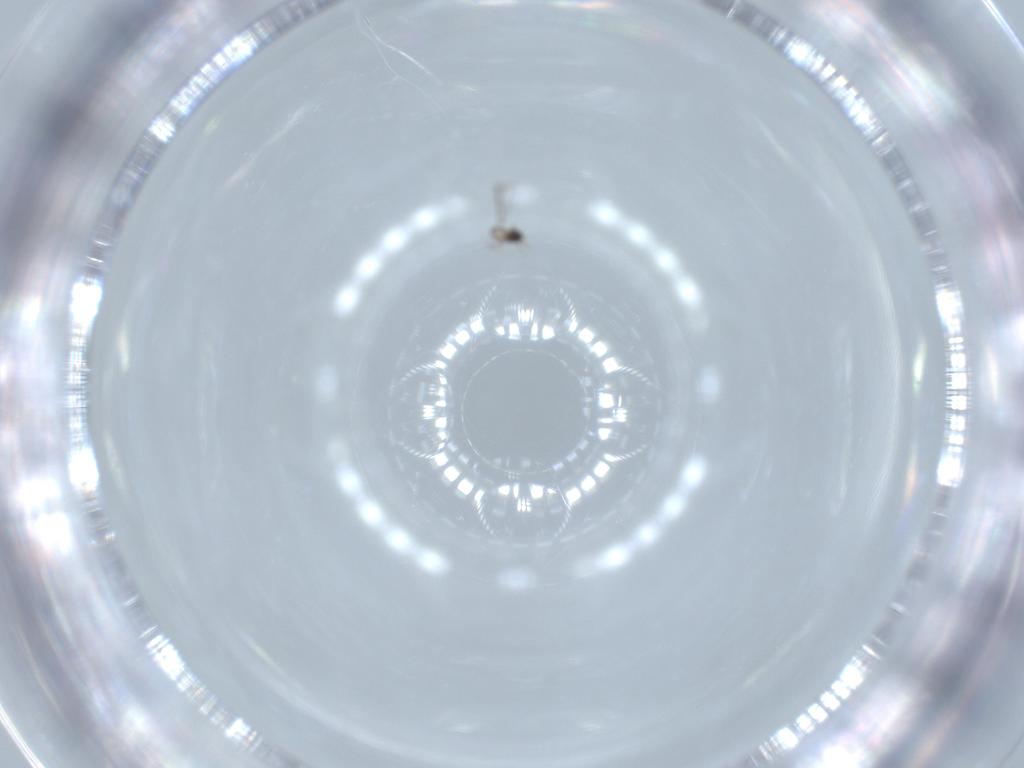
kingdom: Animalia
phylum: Arthropoda
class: Insecta
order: Hymenoptera
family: Mymaridae
